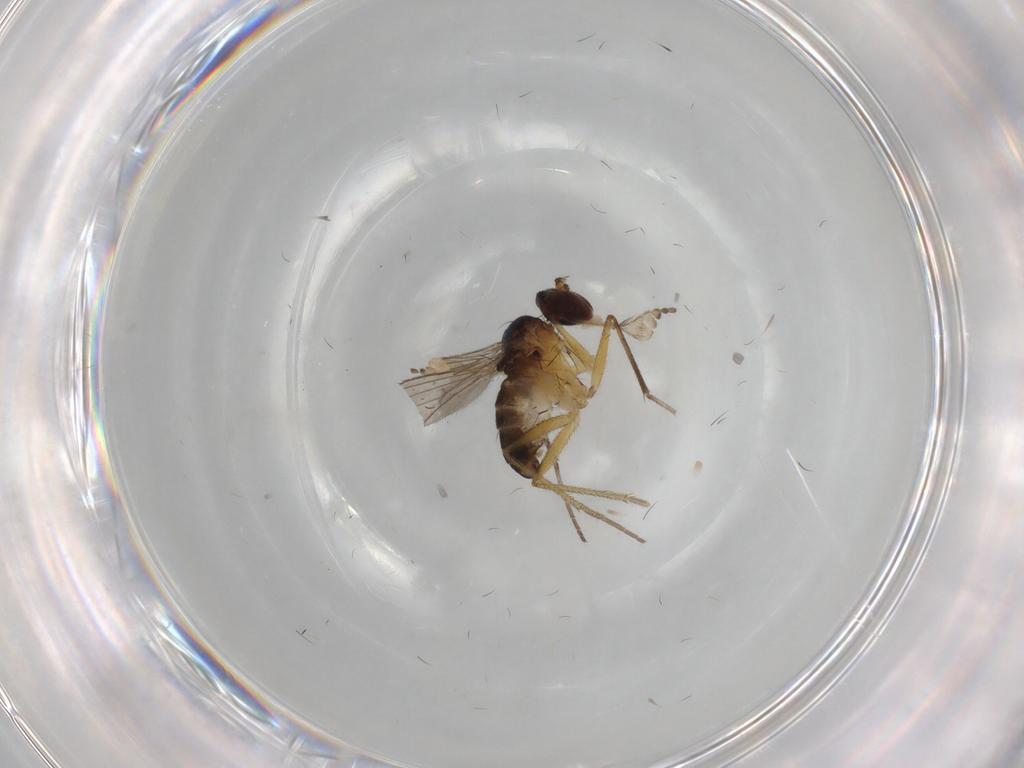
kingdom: Animalia
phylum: Arthropoda
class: Insecta
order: Diptera
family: Dolichopodidae
